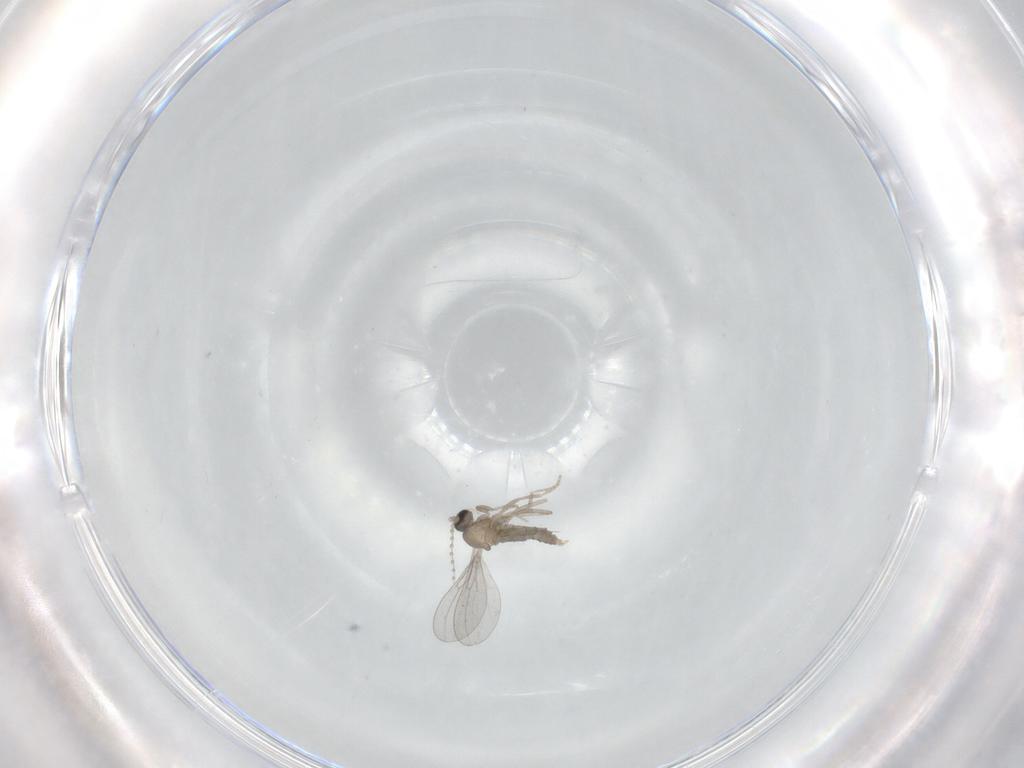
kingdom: Animalia
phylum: Arthropoda
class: Insecta
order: Diptera
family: Cecidomyiidae
